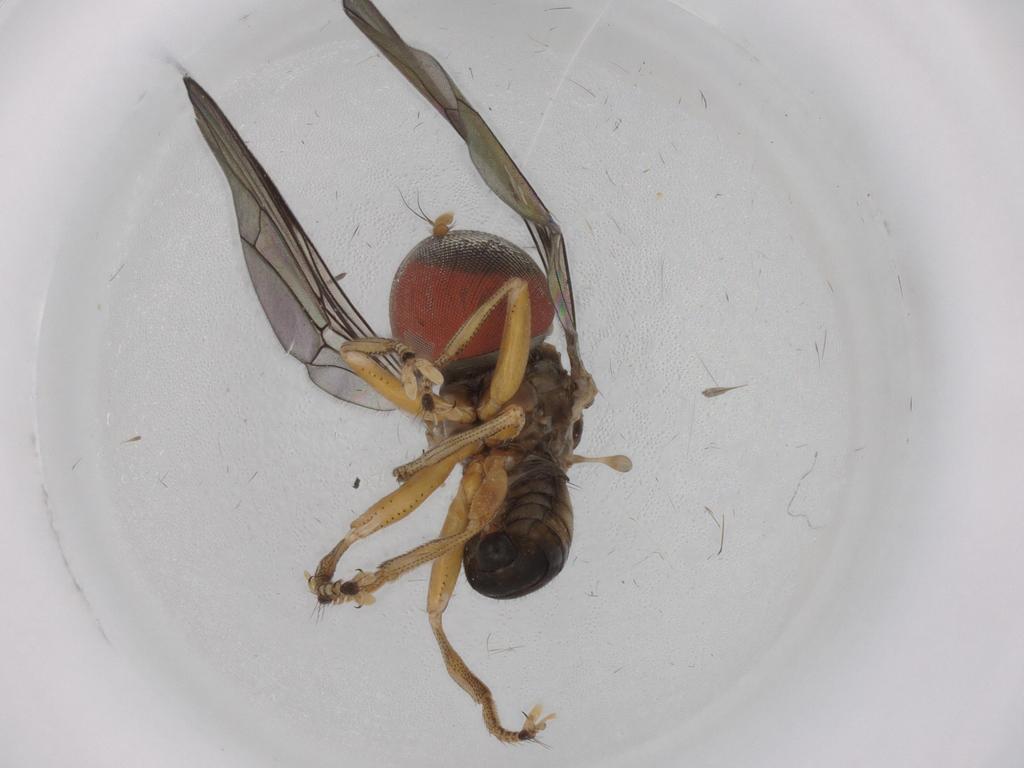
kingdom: Animalia
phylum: Arthropoda
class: Insecta
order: Diptera
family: Pipunculidae
